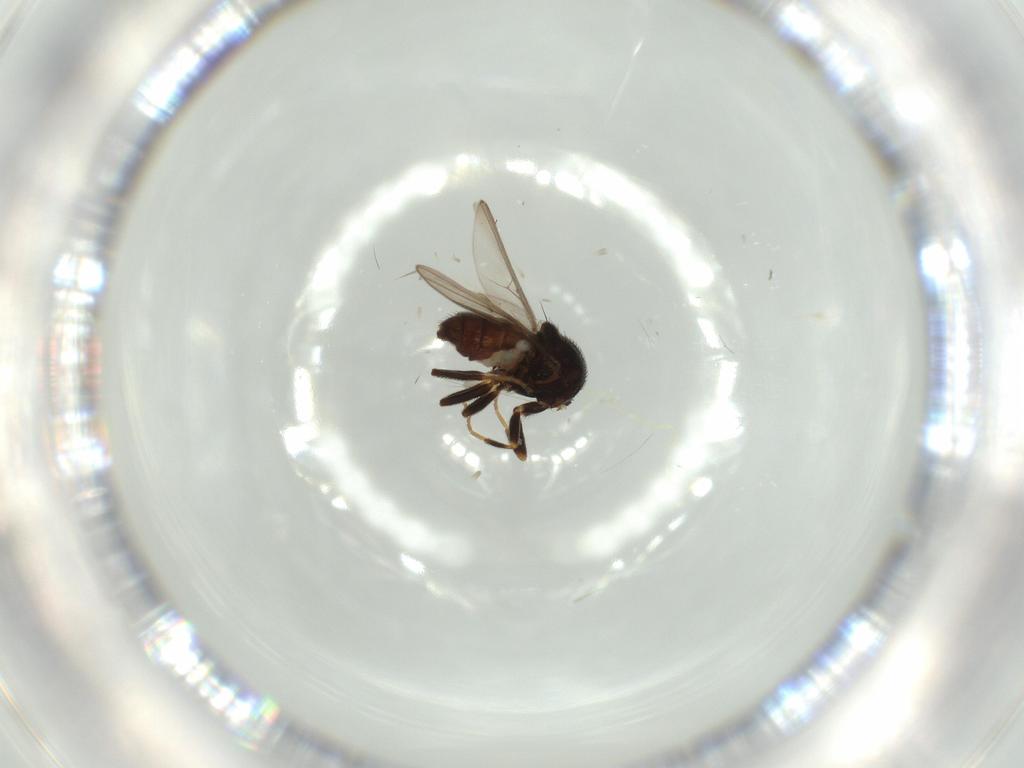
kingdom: Animalia
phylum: Arthropoda
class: Insecta
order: Diptera
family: Chloropidae
